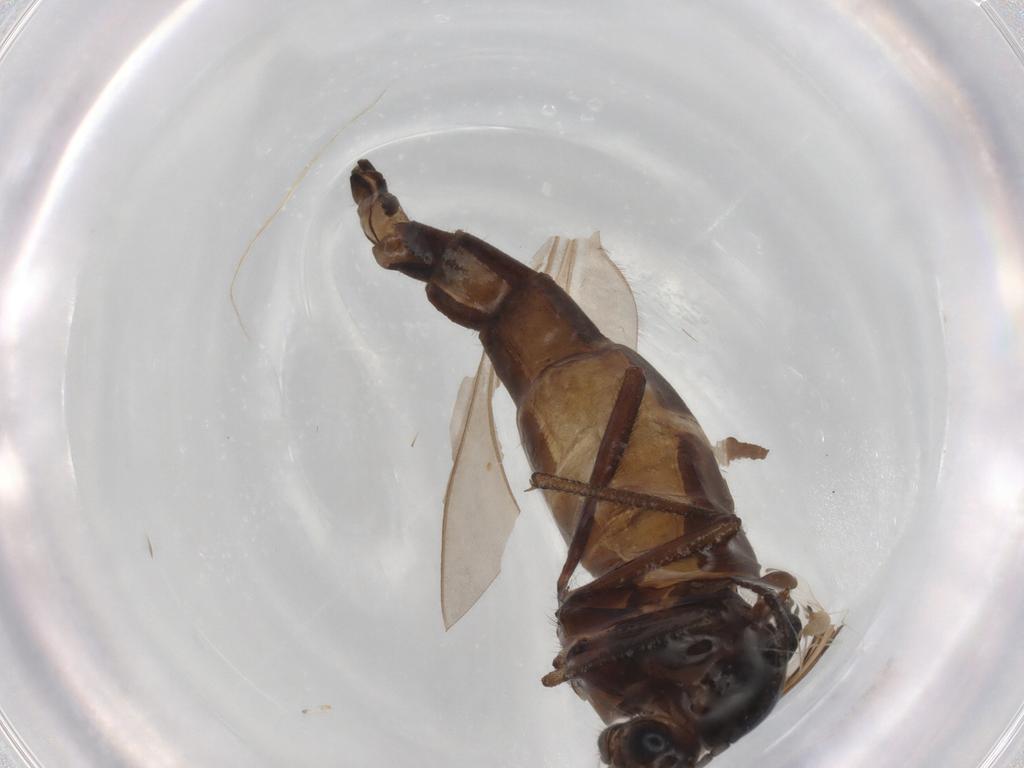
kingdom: Animalia
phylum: Arthropoda
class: Insecta
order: Diptera
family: Sciaridae
